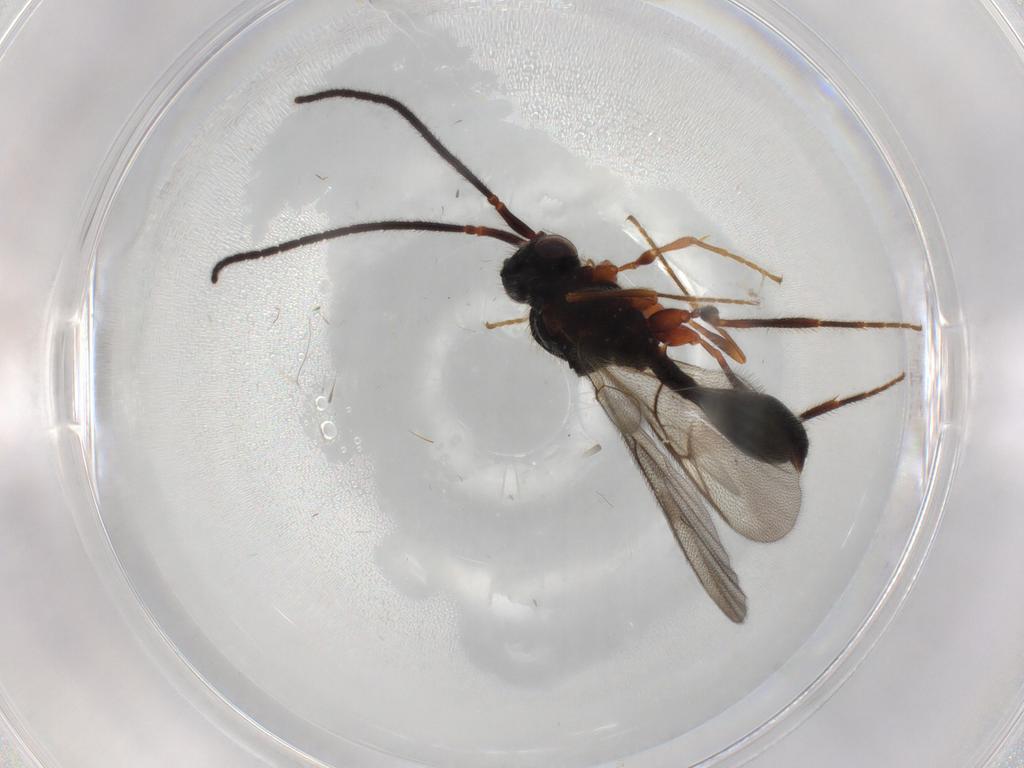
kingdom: Animalia
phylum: Arthropoda
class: Insecta
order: Hymenoptera
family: Diapriidae
